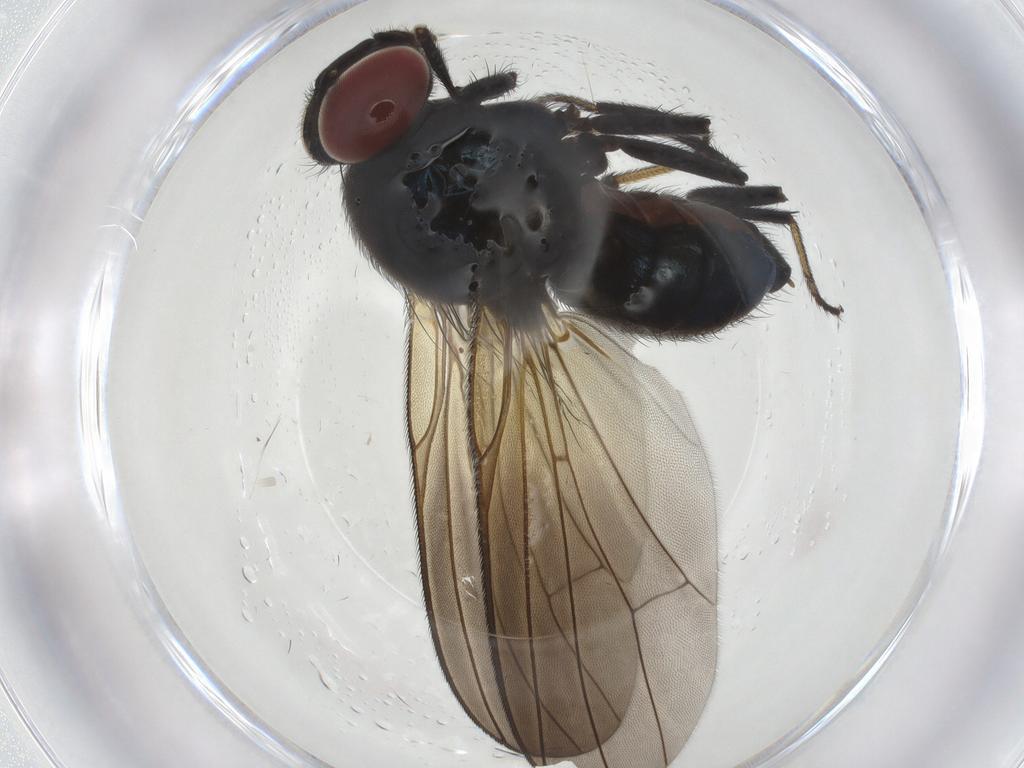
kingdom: Animalia
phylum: Arthropoda
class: Insecta
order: Diptera
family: Lonchaeidae
